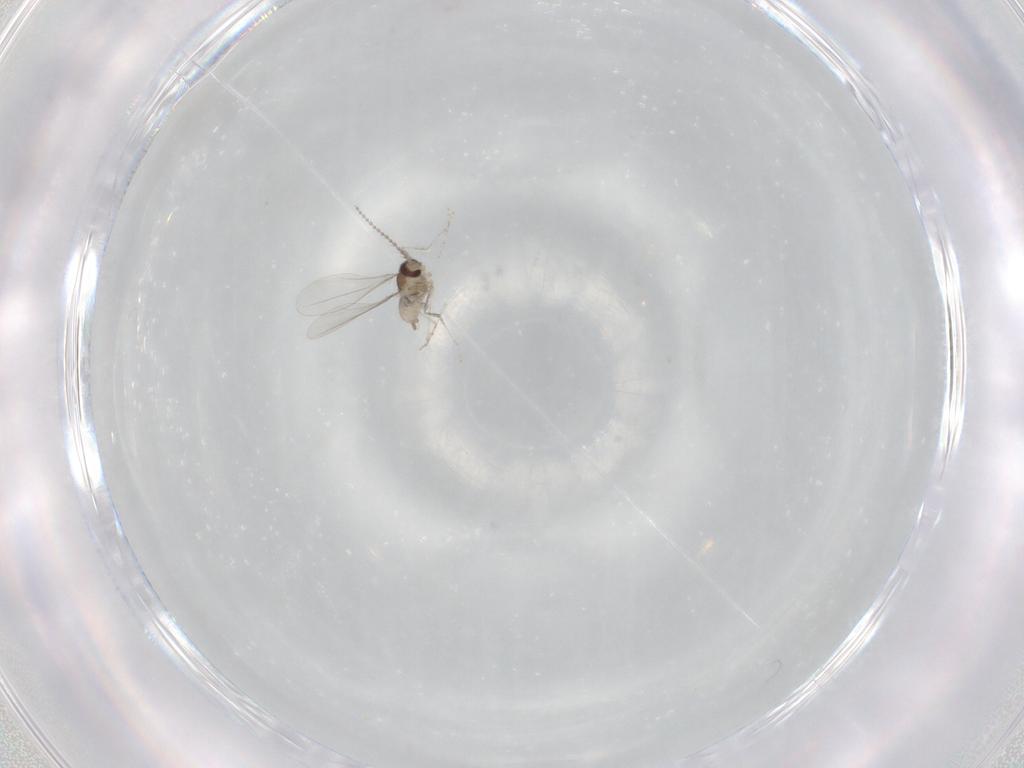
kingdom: Animalia
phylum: Arthropoda
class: Insecta
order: Diptera
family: Cecidomyiidae
